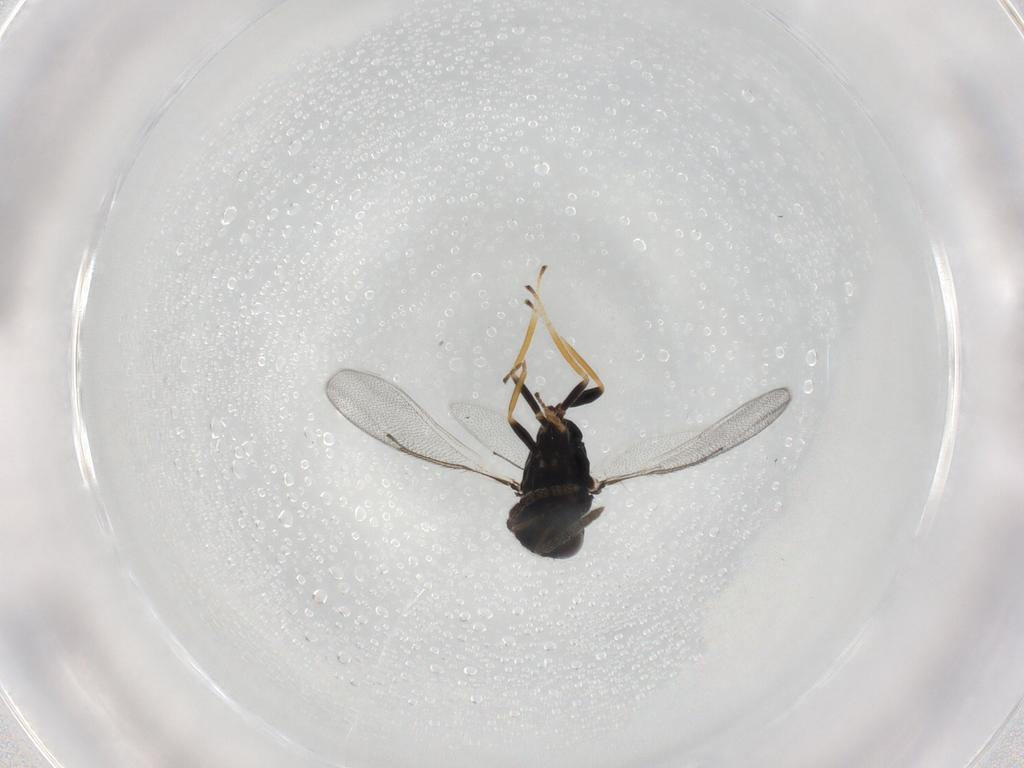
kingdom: Animalia
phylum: Arthropoda
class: Insecta
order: Hymenoptera
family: Eulophidae
